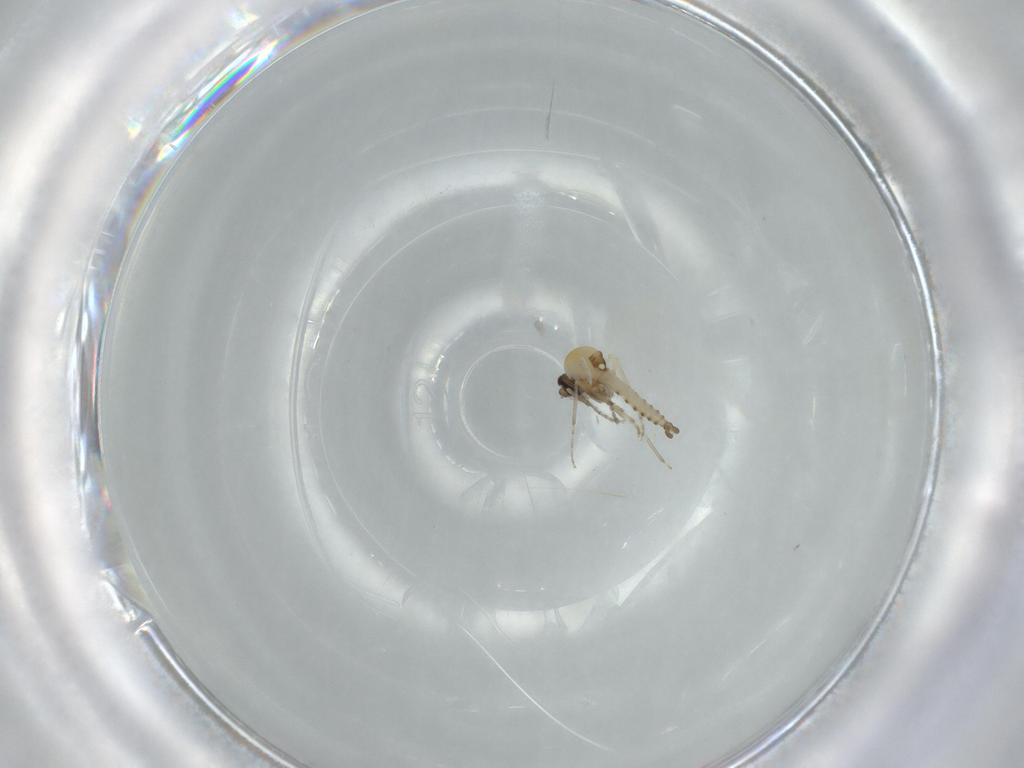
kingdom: Animalia
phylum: Arthropoda
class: Insecta
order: Diptera
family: Ceratopogonidae
